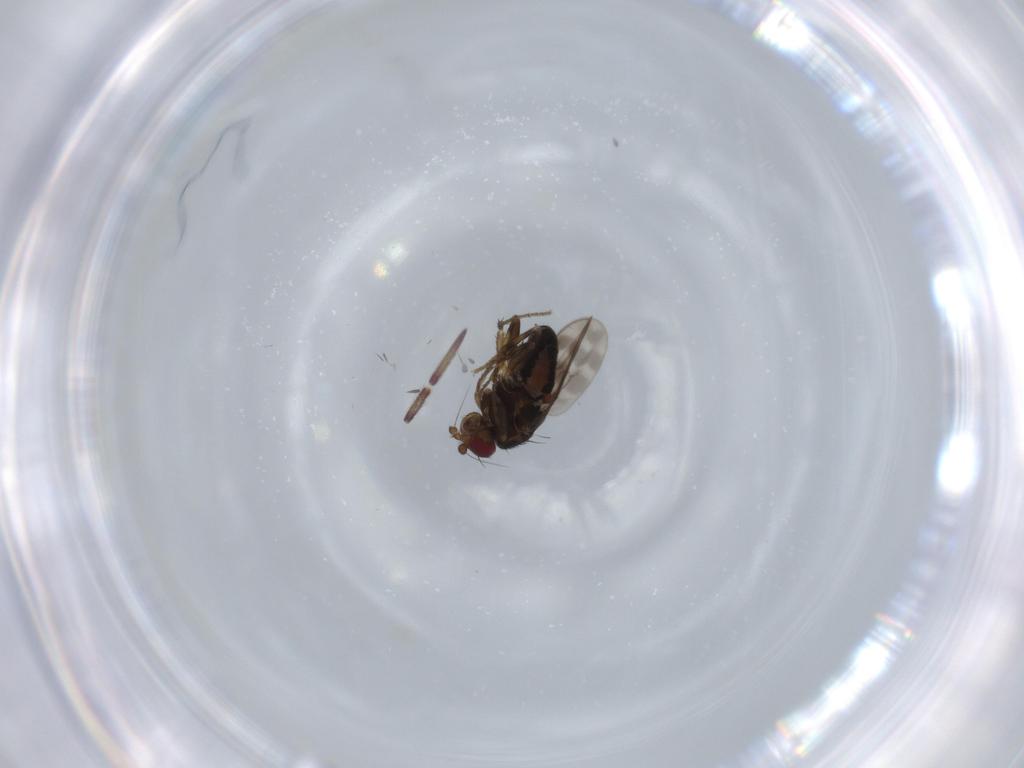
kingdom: Animalia
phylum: Arthropoda
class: Insecta
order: Diptera
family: Sphaeroceridae
